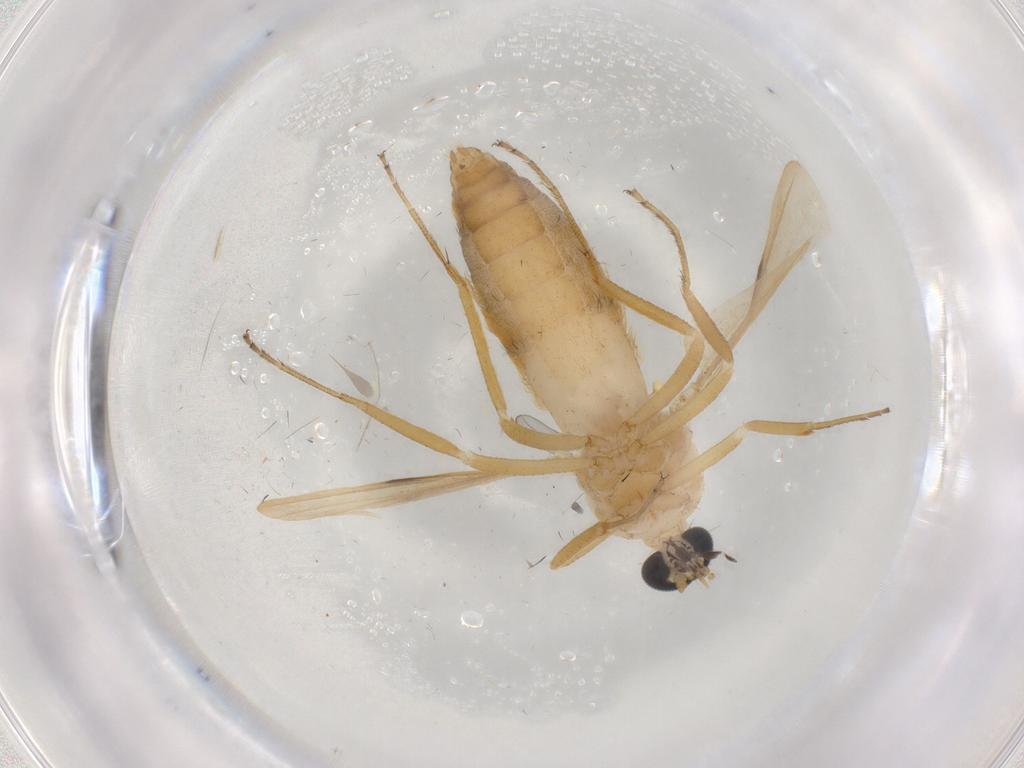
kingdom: Animalia
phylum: Arthropoda
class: Insecta
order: Diptera
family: Ceratopogonidae
